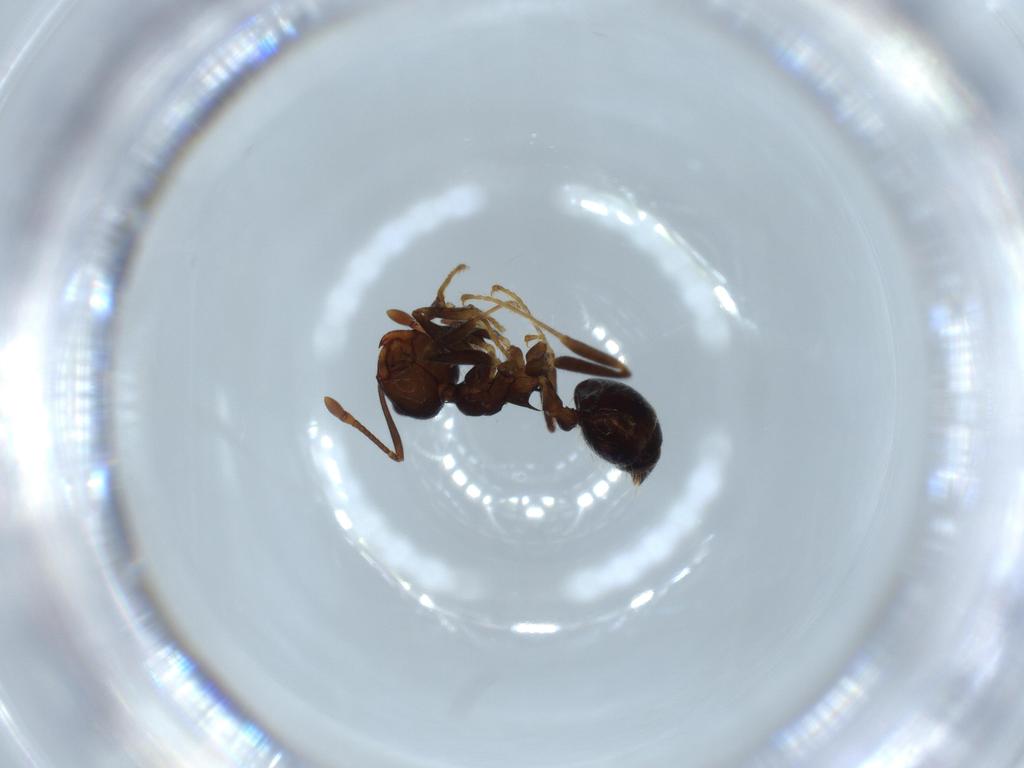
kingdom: Animalia
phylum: Arthropoda
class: Insecta
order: Hymenoptera
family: Formicidae
